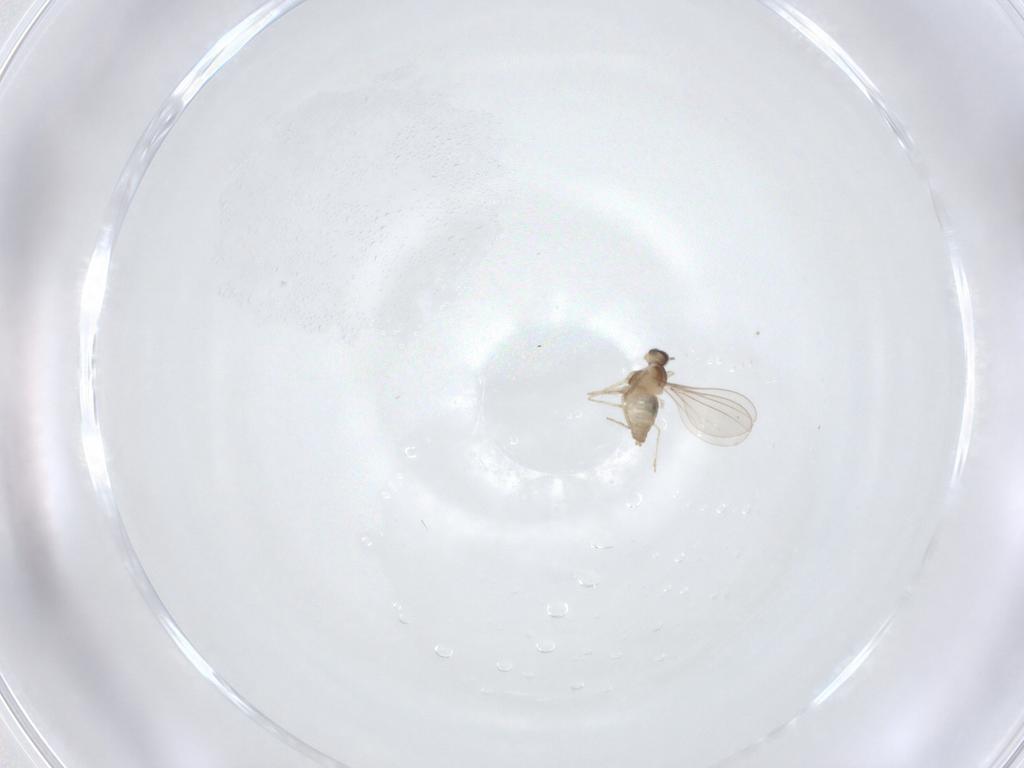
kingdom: Animalia
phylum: Arthropoda
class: Insecta
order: Diptera
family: Cecidomyiidae
